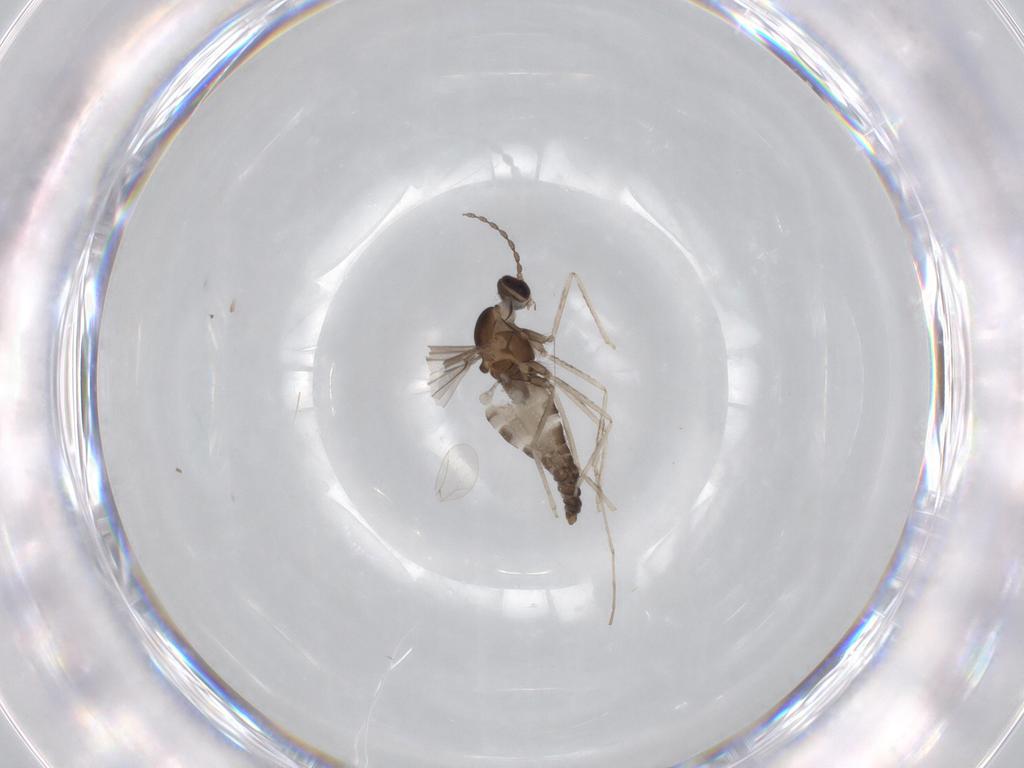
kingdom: Animalia
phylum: Arthropoda
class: Insecta
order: Diptera
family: Cecidomyiidae
